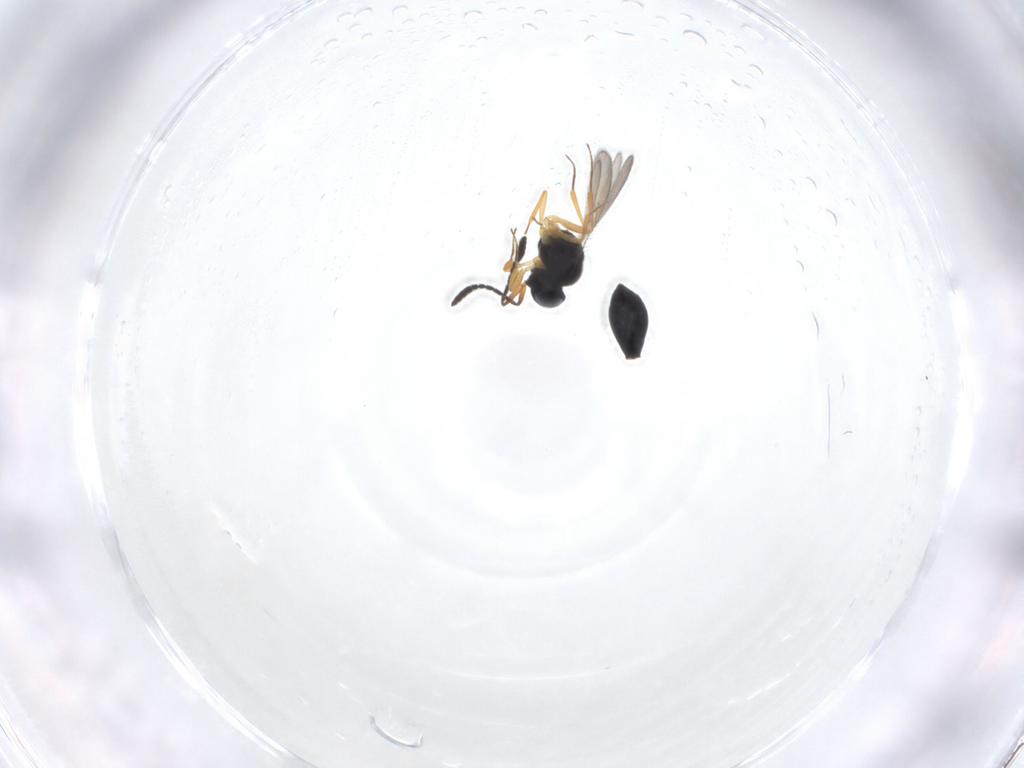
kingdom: Animalia
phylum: Arthropoda
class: Insecta
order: Hymenoptera
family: Scelionidae
